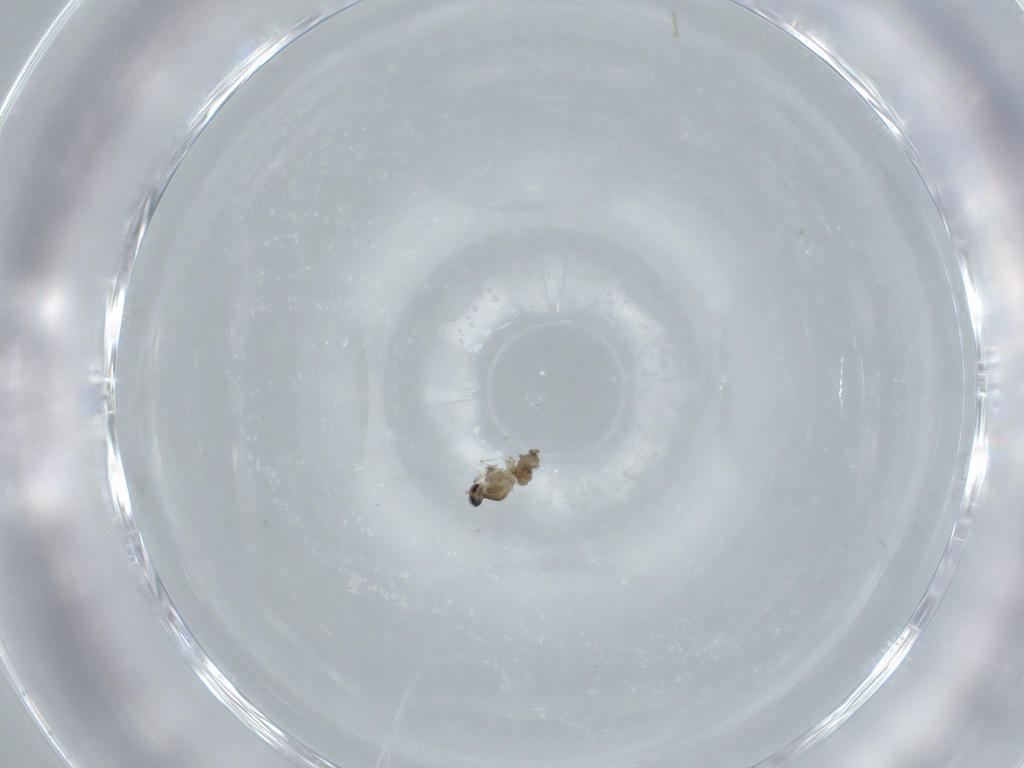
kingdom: Animalia
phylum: Arthropoda
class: Insecta
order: Diptera
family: Cecidomyiidae
